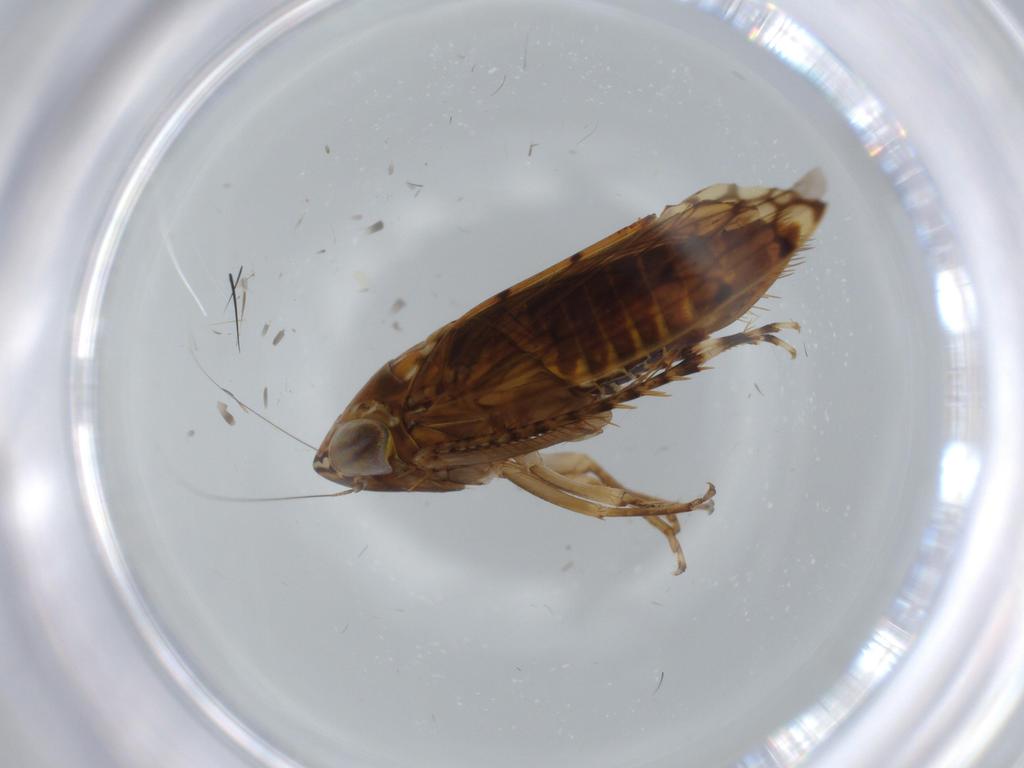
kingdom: Animalia
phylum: Arthropoda
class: Insecta
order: Hemiptera
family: Cicadellidae
